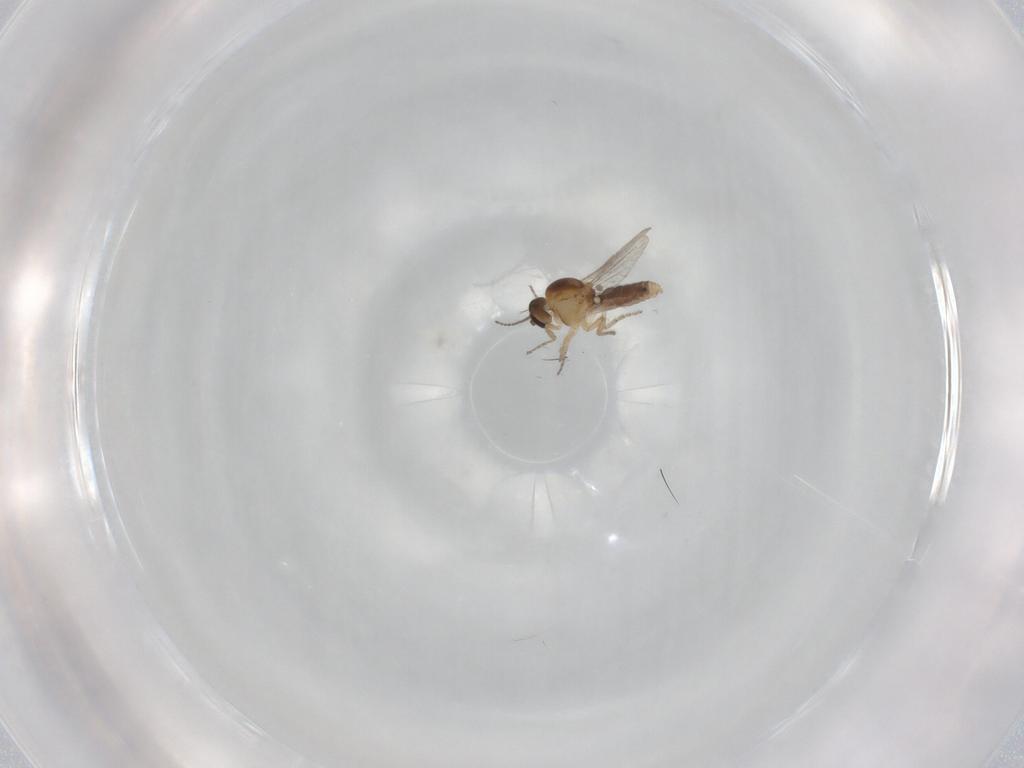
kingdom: Animalia
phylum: Arthropoda
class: Insecta
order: Diptera
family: Ceratopogonidae
